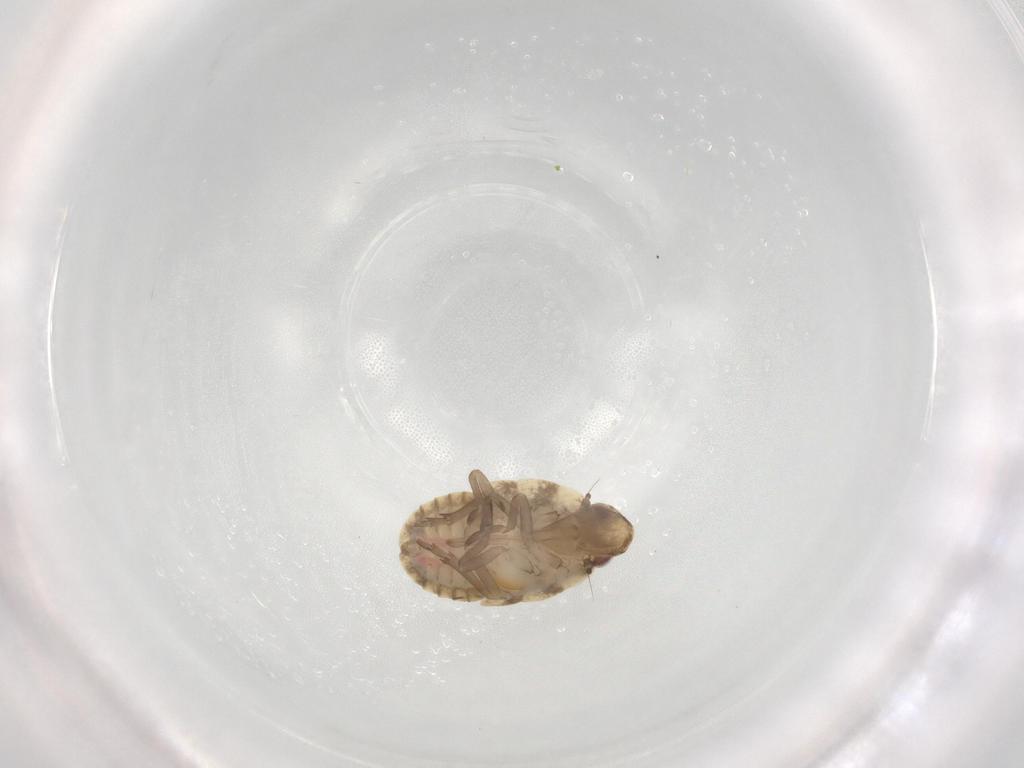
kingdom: Animalia
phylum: Arthropoda
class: Insecta
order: Hemiptera
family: Flatidae
